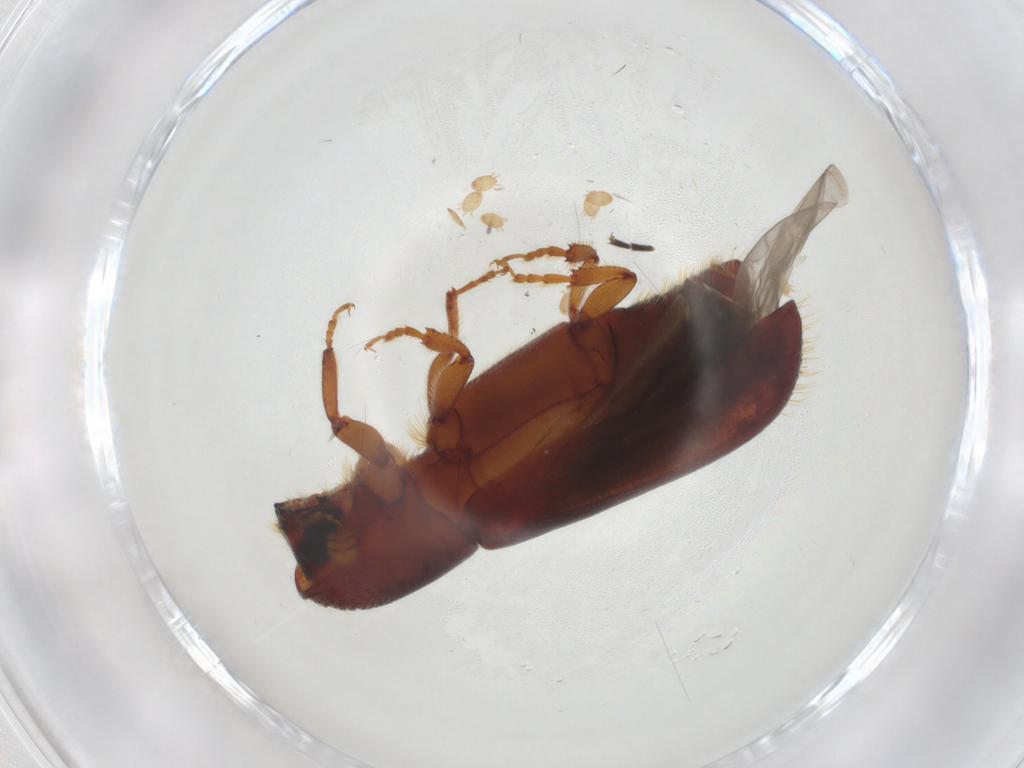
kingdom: Animalia
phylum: Arthropoda
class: Insecta
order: Coleoptera
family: Curculionidae
